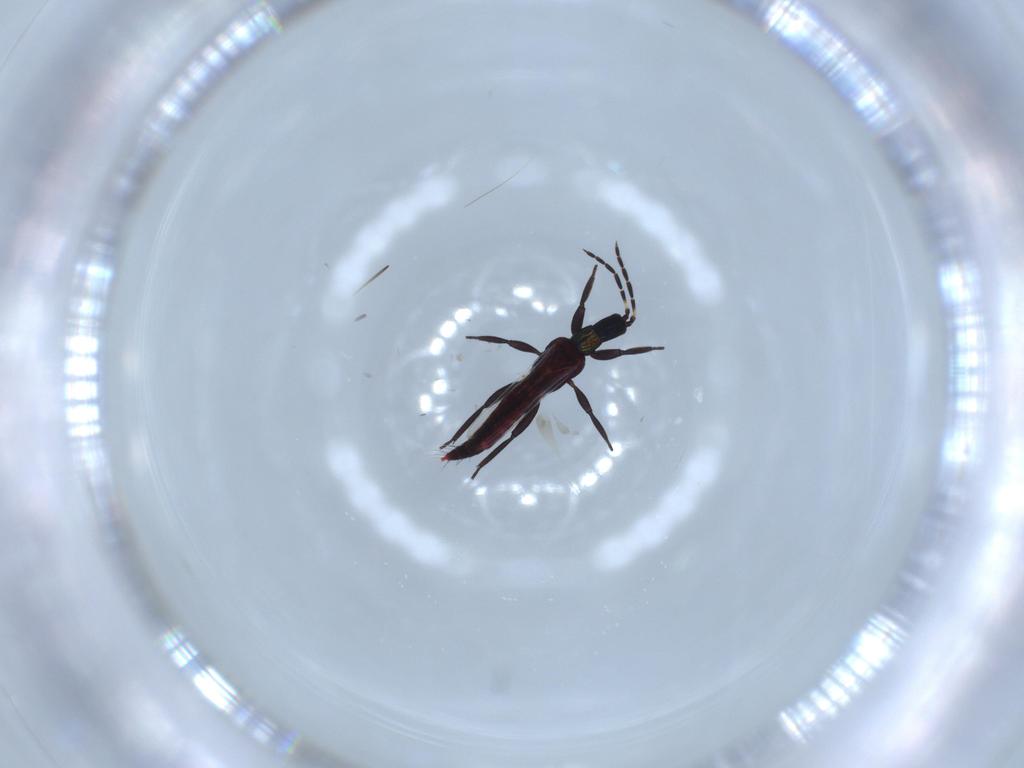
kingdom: Animalia
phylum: Arthropoda
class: Insecta
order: Thysanoptera
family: Aeolothripidae
